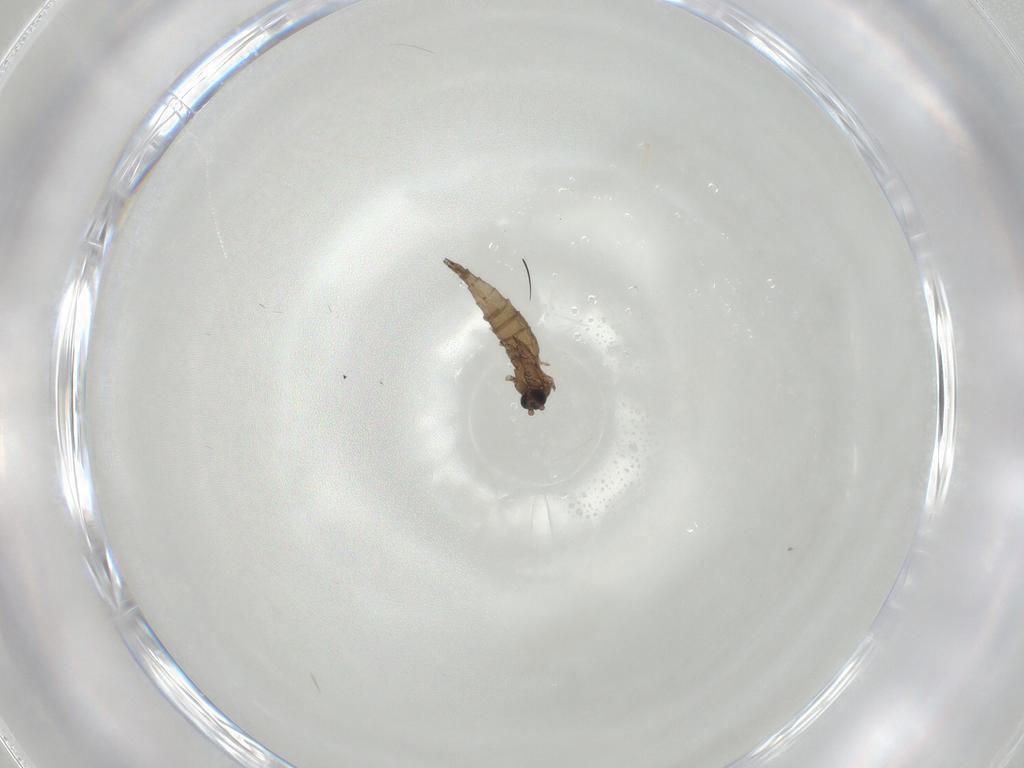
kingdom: Animalia
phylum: Arthropoda
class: Insecta
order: Diptera
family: Sciaridae
